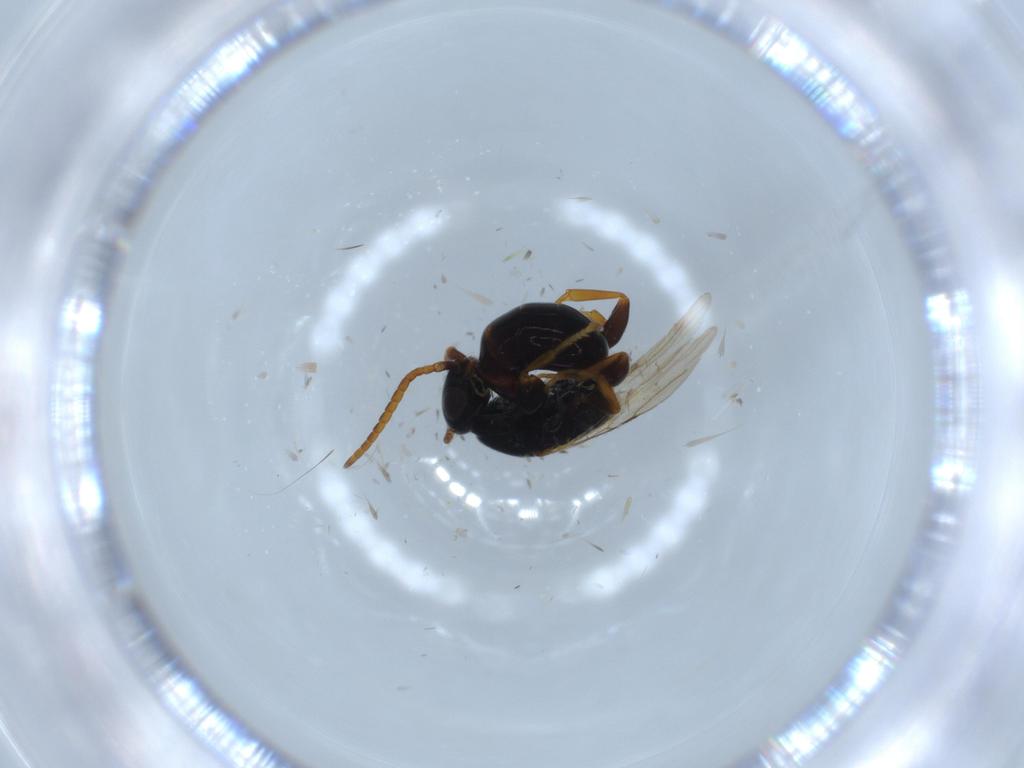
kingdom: Animalia
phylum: Arthropoda
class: Insecta
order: Hymenoptera
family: Bethylidae
